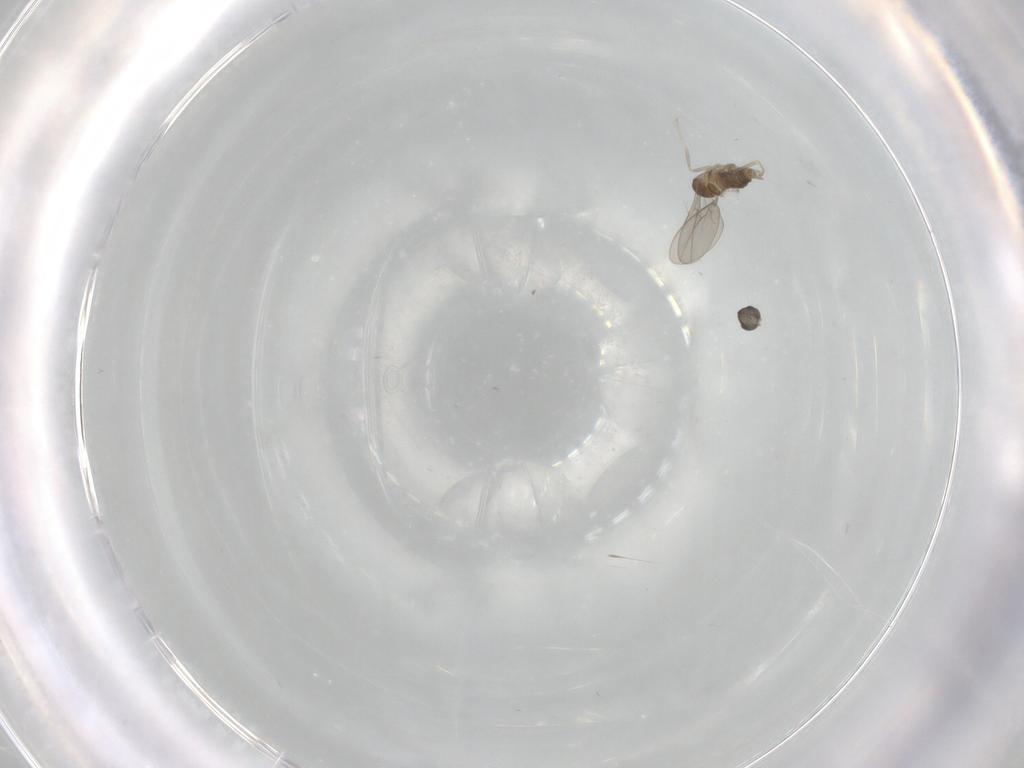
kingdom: Animalia
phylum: Arthropoda
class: Insecta
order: Diptera
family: Cecidomyiidae
